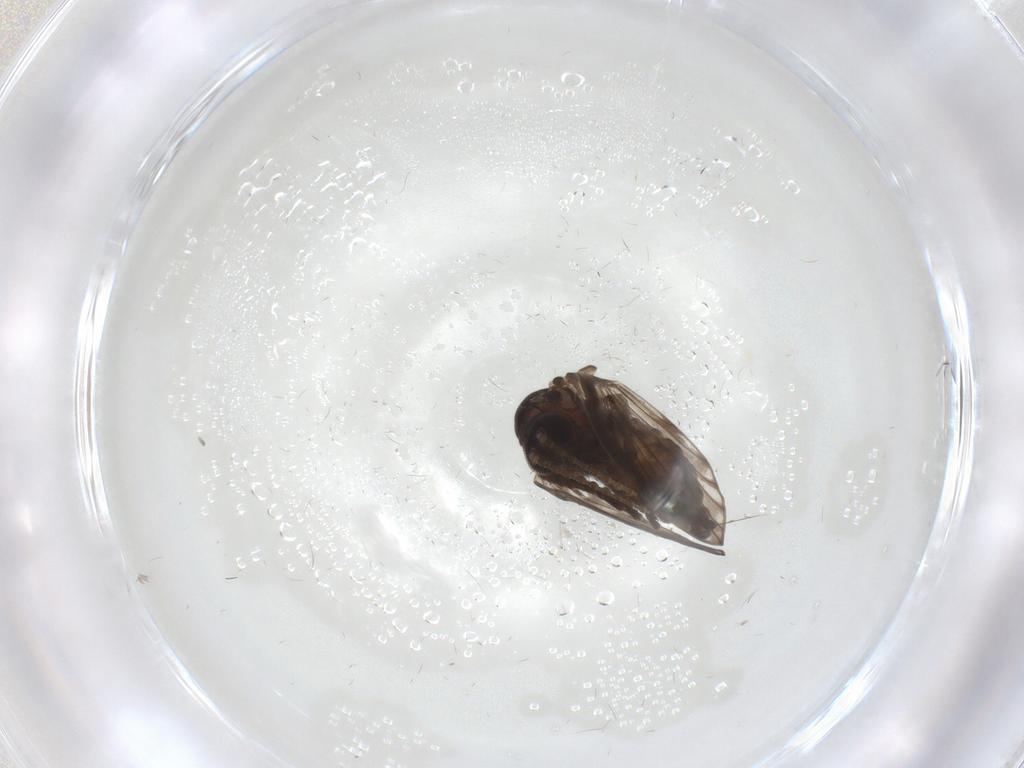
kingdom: Animalia
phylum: Arthropoda
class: Insecta
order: Diptera
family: Psychodidae
